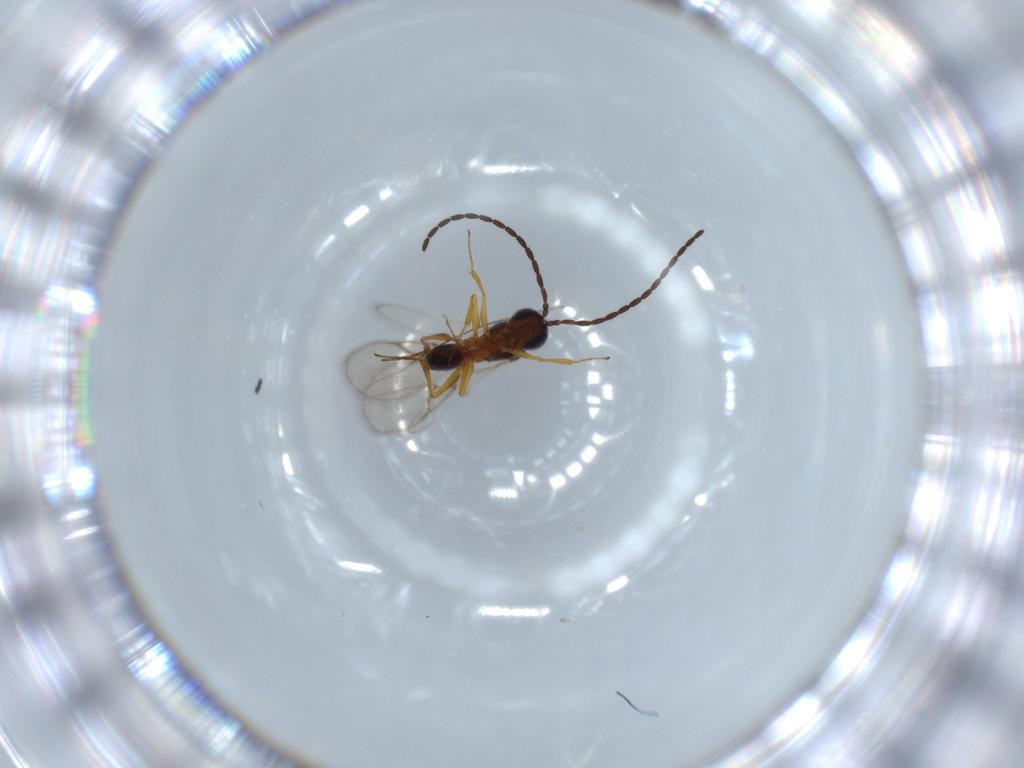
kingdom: Animalia
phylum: Arthropoda
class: Insecta
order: Hymenoptera
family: Figitidae
